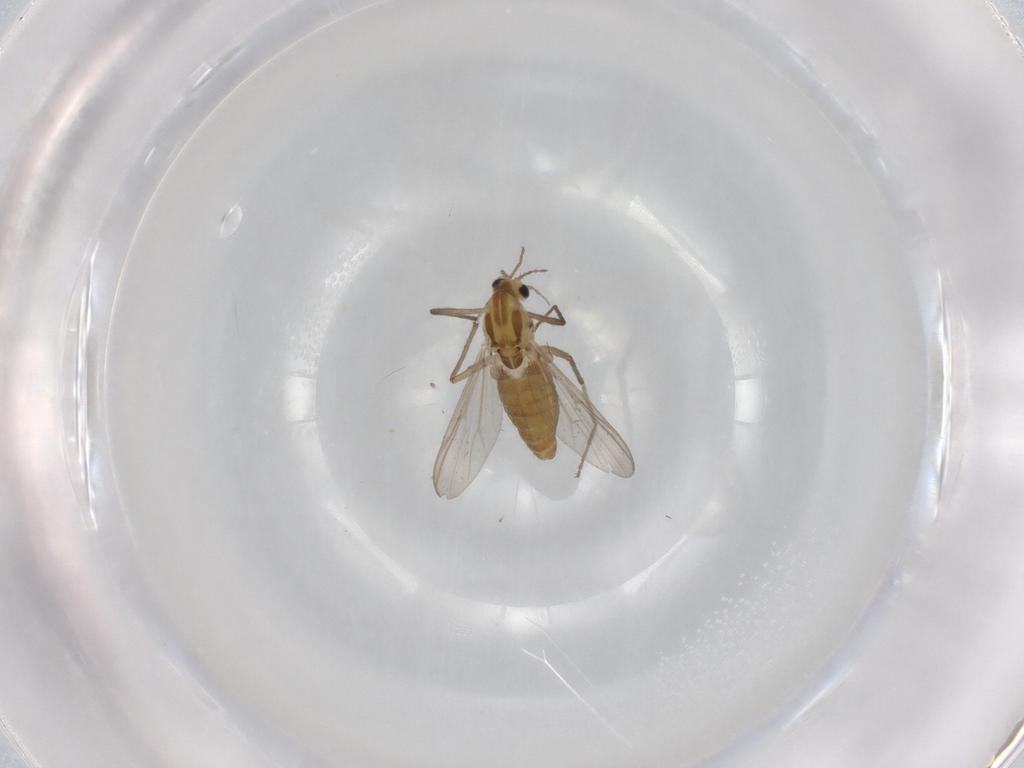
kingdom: Animalia
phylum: Arthropoda
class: Insecta
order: Diptera
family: Chironomidae
